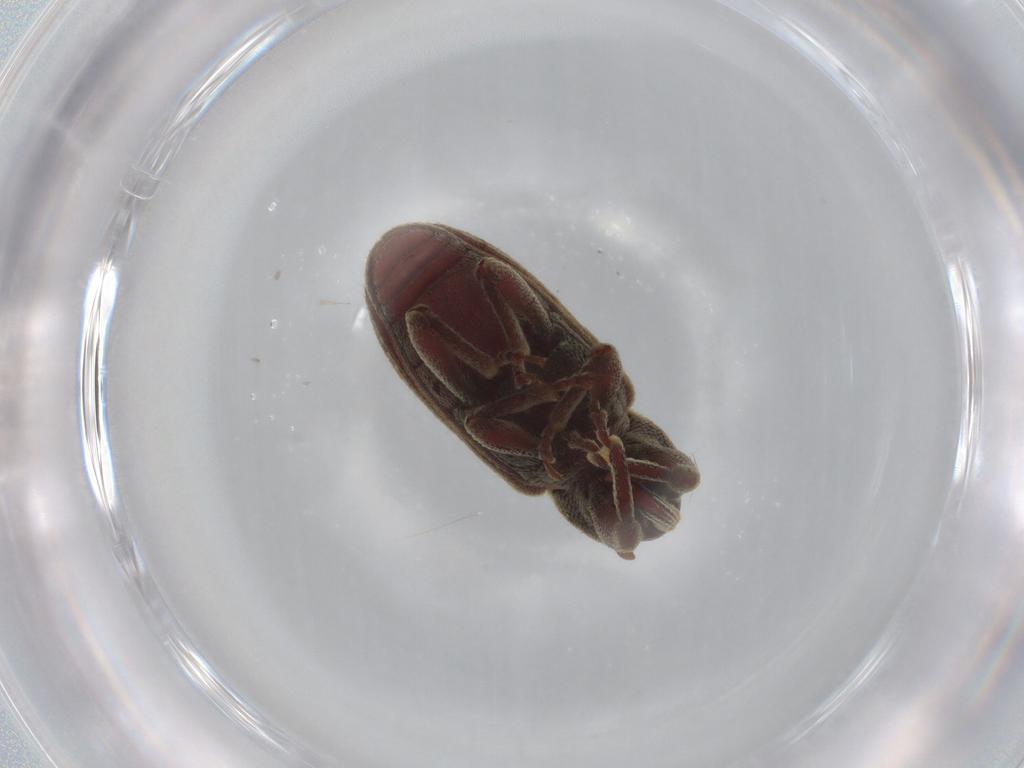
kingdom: Animalia
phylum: Arthropoda
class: Insecta
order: Coleoptera
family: Curculionidae
